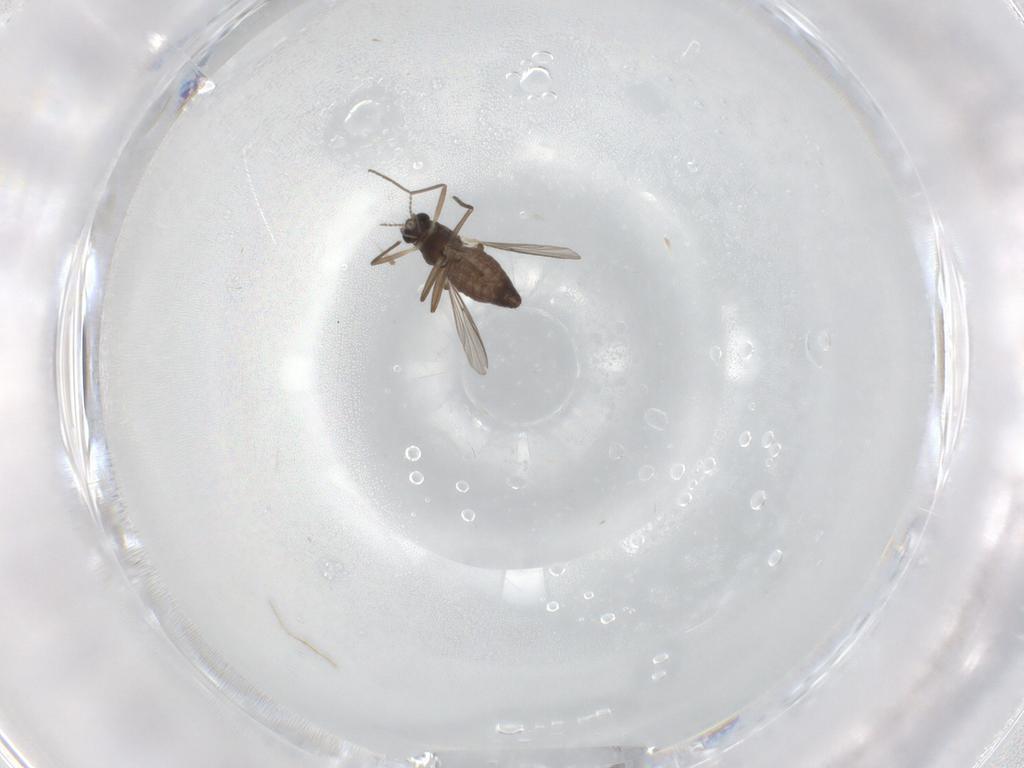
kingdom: Animalia
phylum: Arthropoda
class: Insecta
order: Diptera
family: Chironomidae
